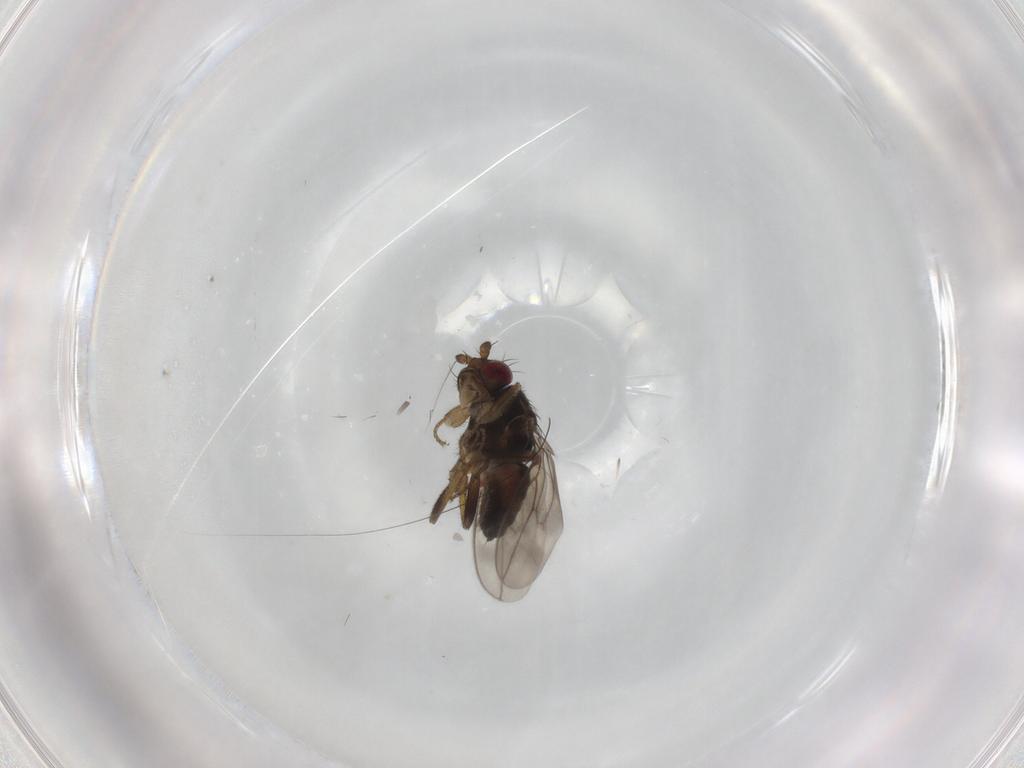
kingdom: Animalia
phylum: Arthropoda
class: Insecta
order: Diptera
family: Sphaeroceridae
